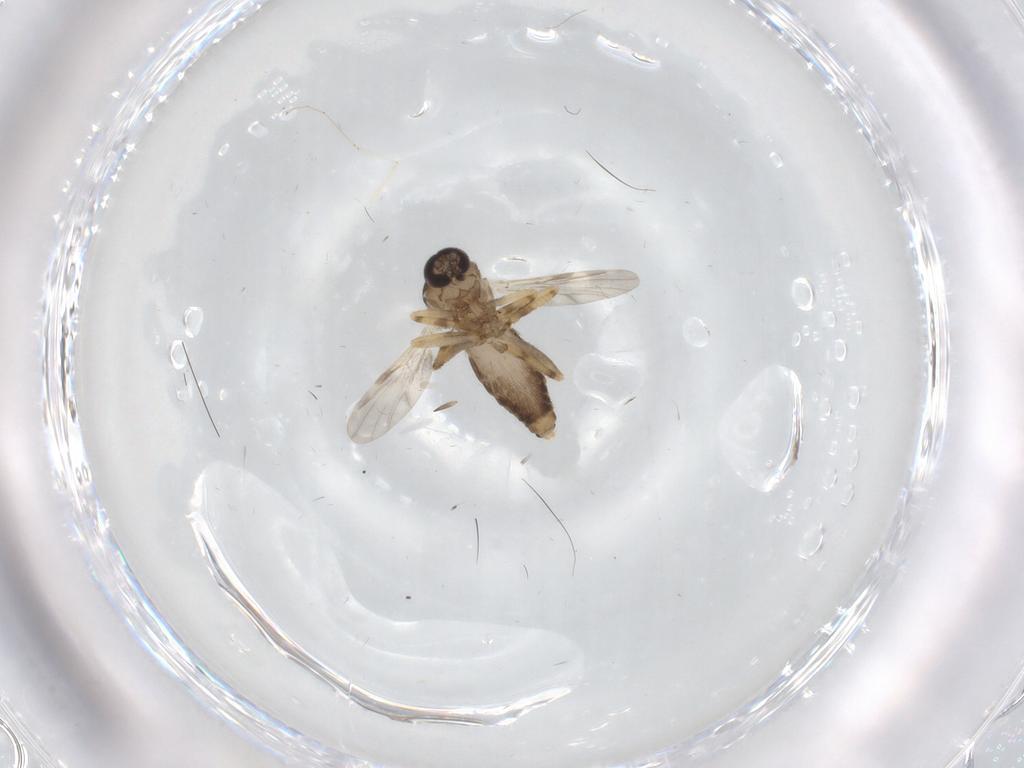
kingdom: Animalia
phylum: Arthropoda
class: Insecta
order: Diptera
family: Ceratopogonidae
